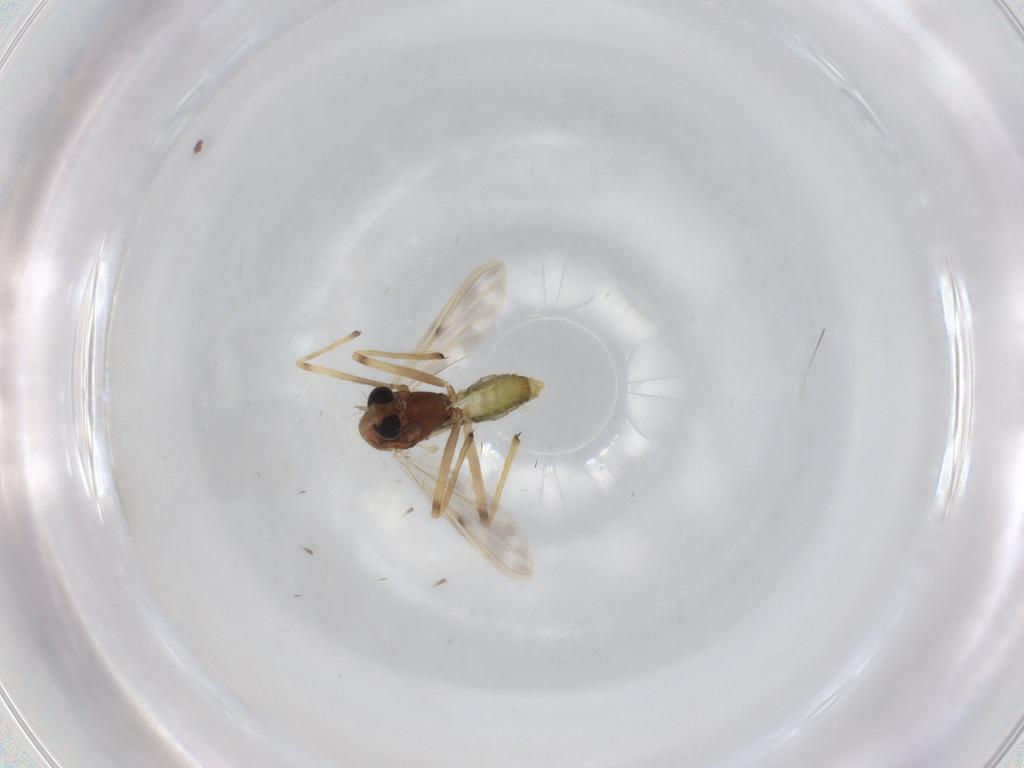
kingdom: Animalia
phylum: Arthropoda
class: Insecta
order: Diptera
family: Chironomidae
